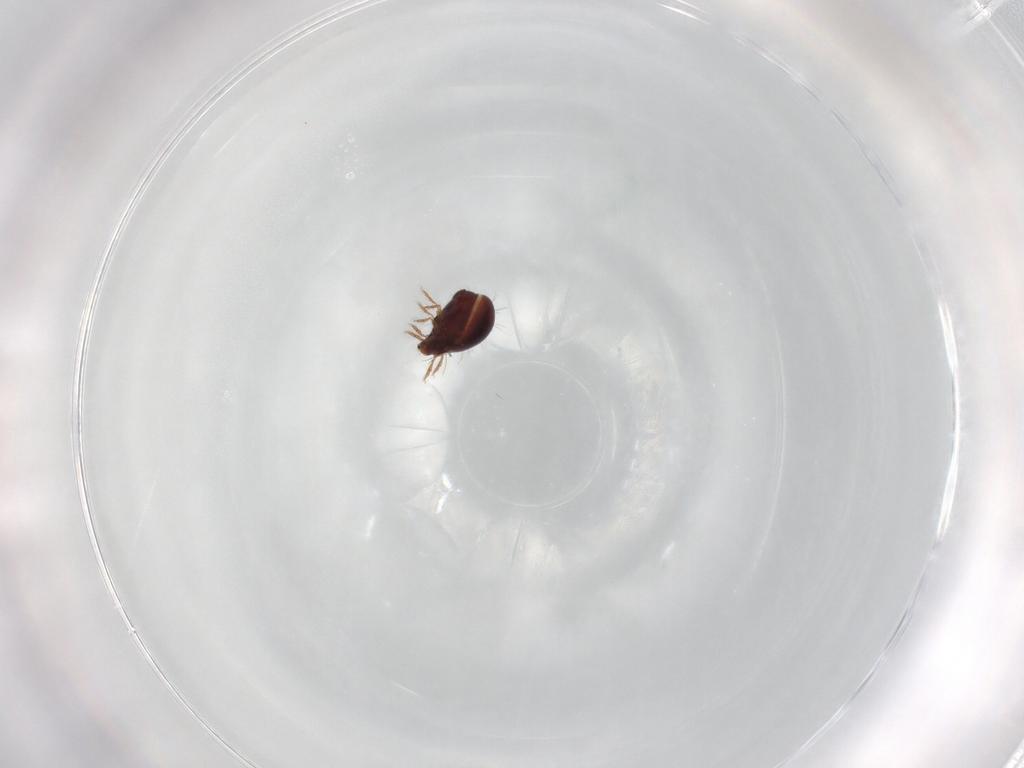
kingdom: Animalia
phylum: Arthropoda
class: Arachnida
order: Sarcoptiformes
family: Humerobatidae
